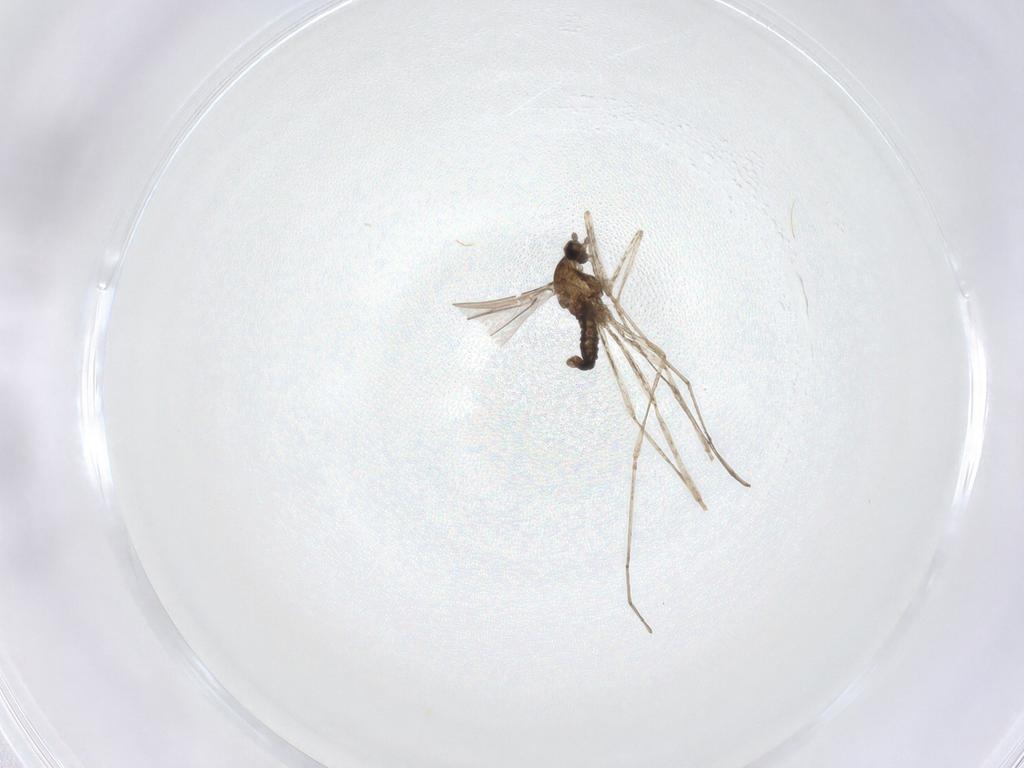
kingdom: Animalia
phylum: Arthropoda
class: Insecta
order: Diptera
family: Cecidomyiidae
